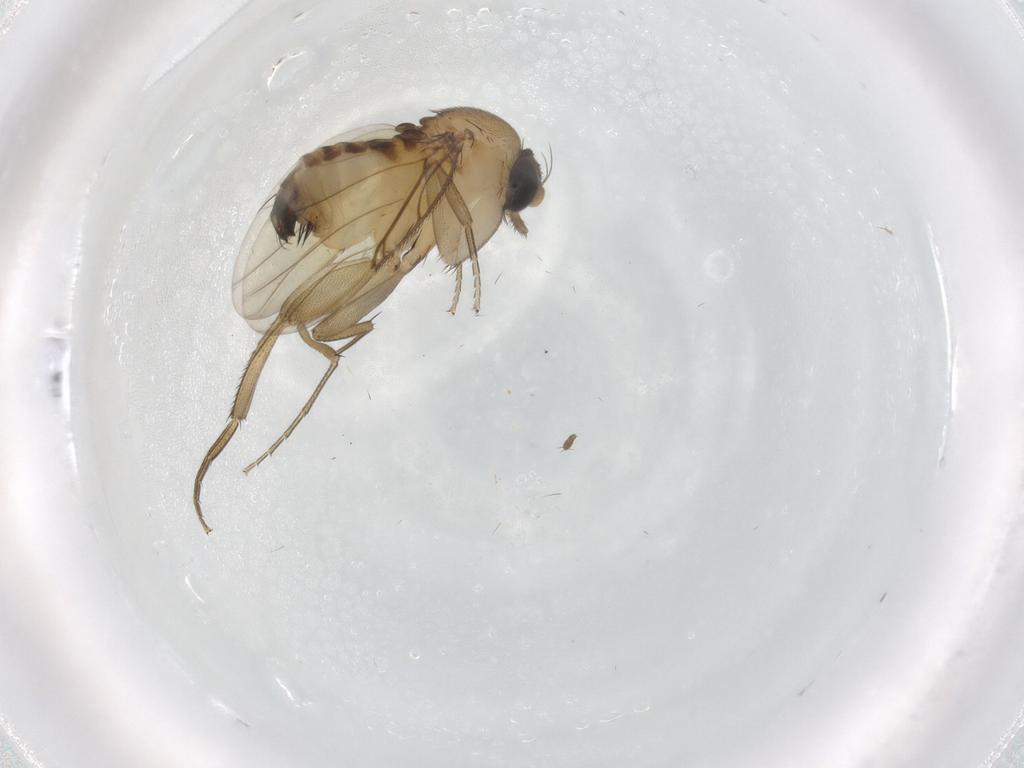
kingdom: Animalia
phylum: Arthropoda
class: Insecta
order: Diptera
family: Phoridae
